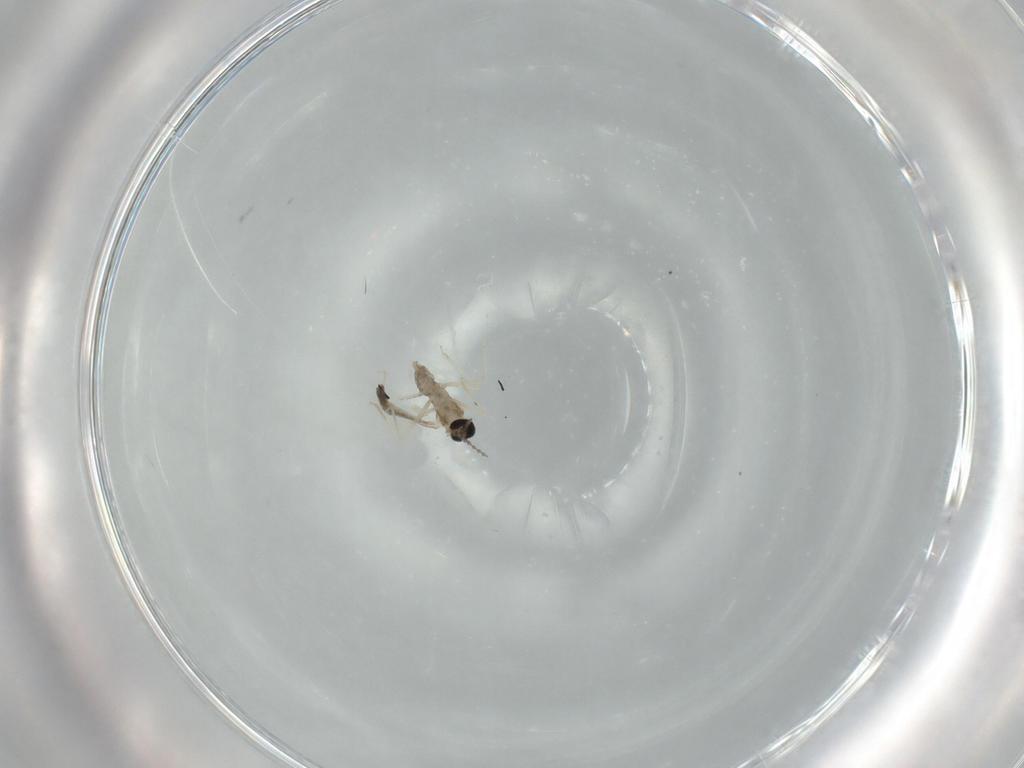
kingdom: Animalia
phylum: Arthropoda
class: Insecta
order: Diptera
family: Cecidomyiidae
